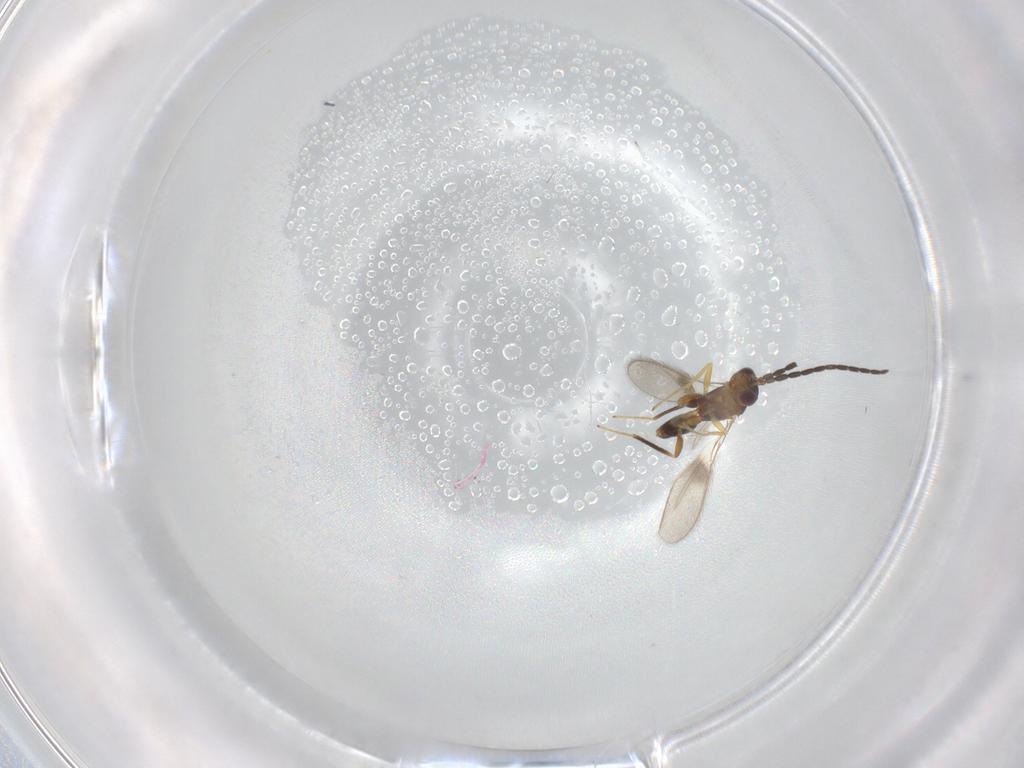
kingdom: Animalia
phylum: Arthropoda
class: Insecta
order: Hymenoptera
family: Mymaridae
